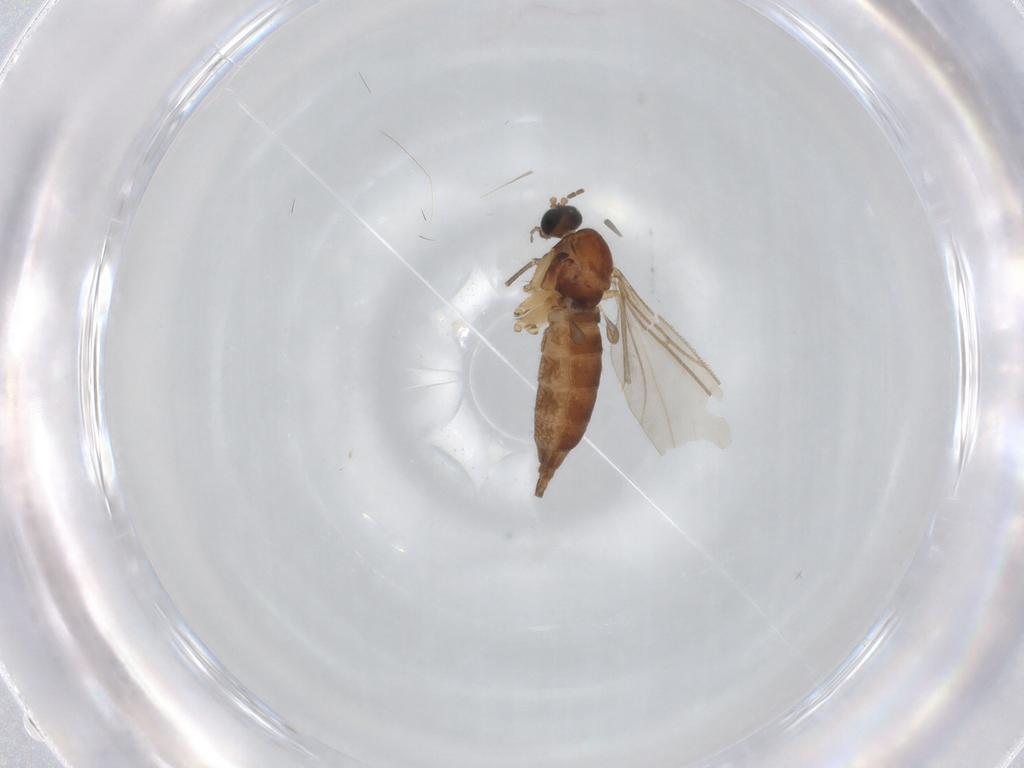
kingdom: Animalia
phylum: Arthropoda
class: Insecta
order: Diptera
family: Sciaridae
